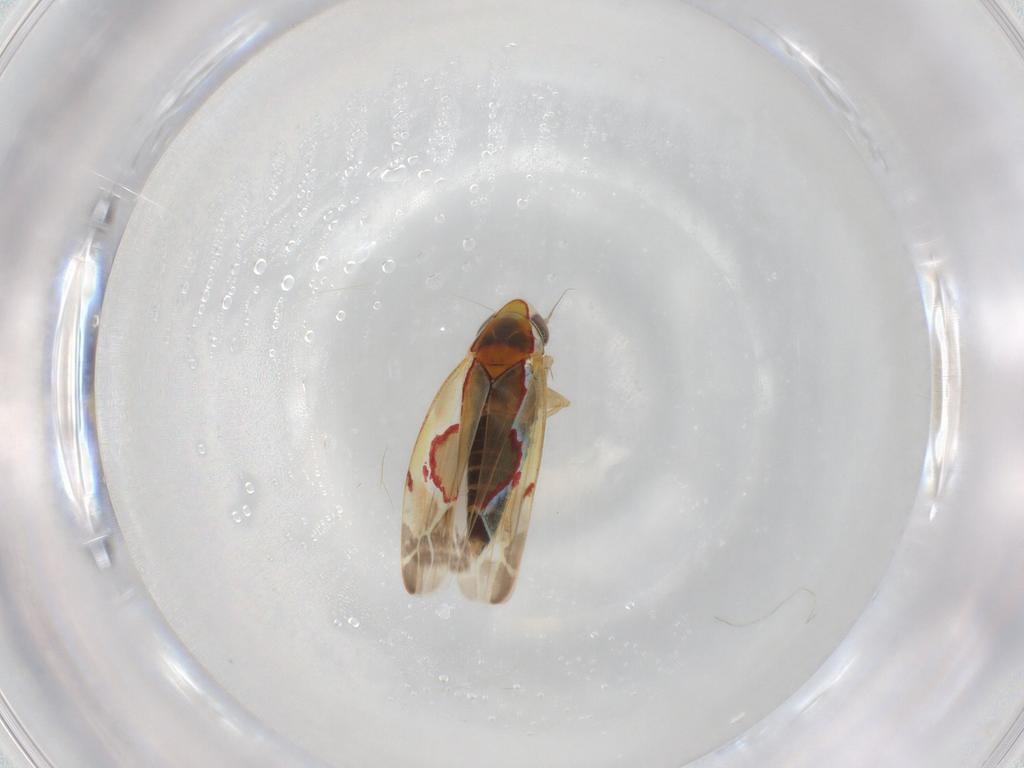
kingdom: Animalia
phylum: Arthropoda
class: Insecta
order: Hemiptera
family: Cicadellidae
